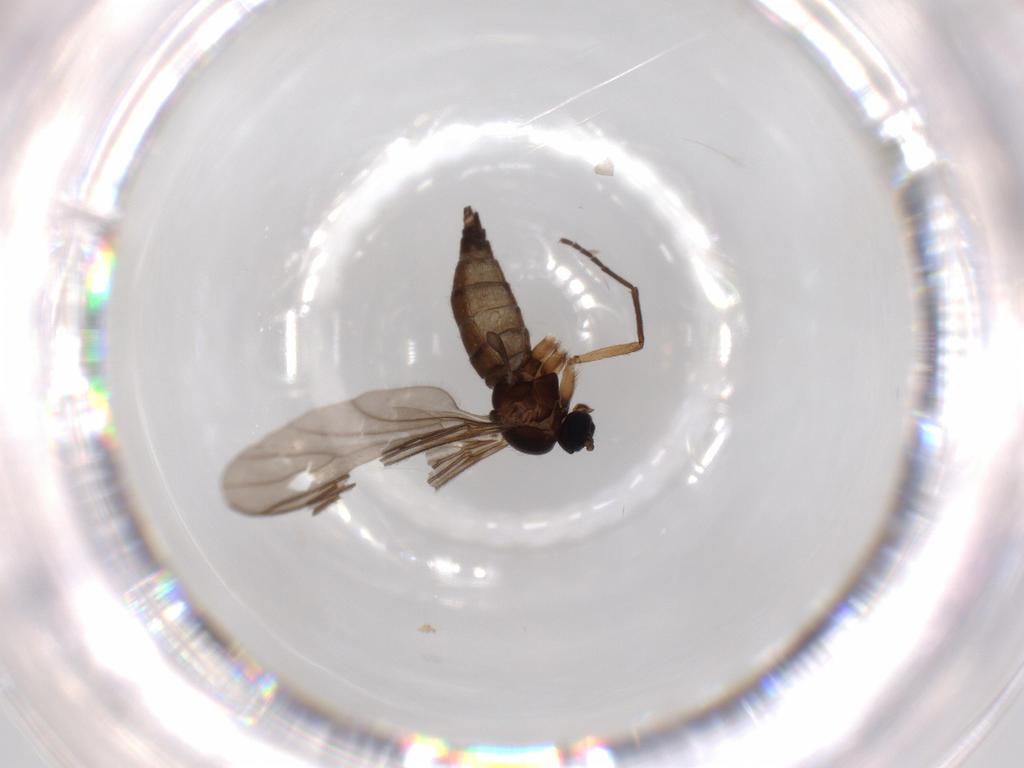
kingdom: Animalia
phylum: Arthropoda
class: Insecta
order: Diptera
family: Sciaridae
